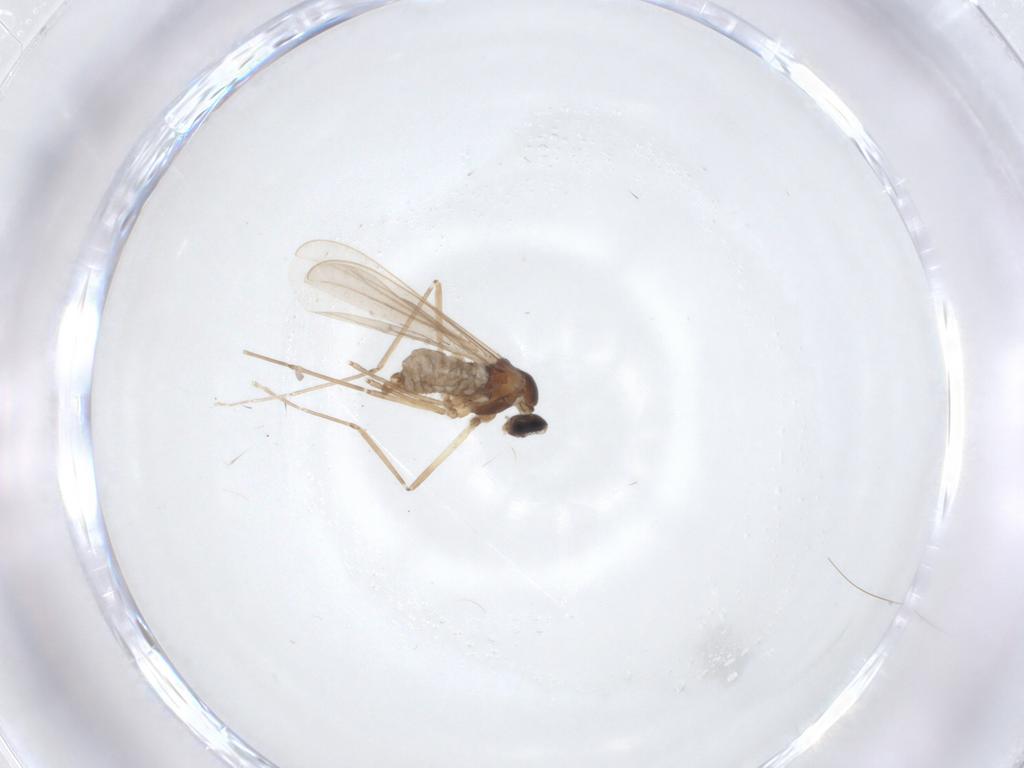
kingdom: Animalia
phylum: Arthropoda
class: Insecta
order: Diptera
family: Cecidomyiidae
